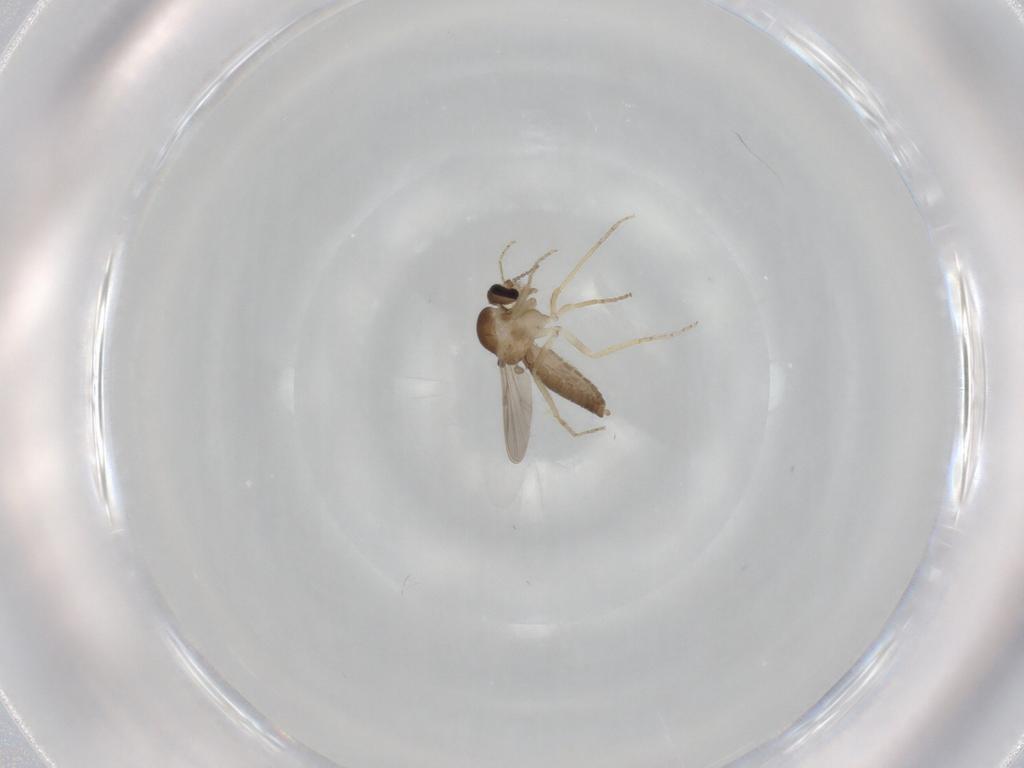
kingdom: Animalia
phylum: Arthropoda
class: Insecta
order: Diptera
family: Ceratopogonidae
